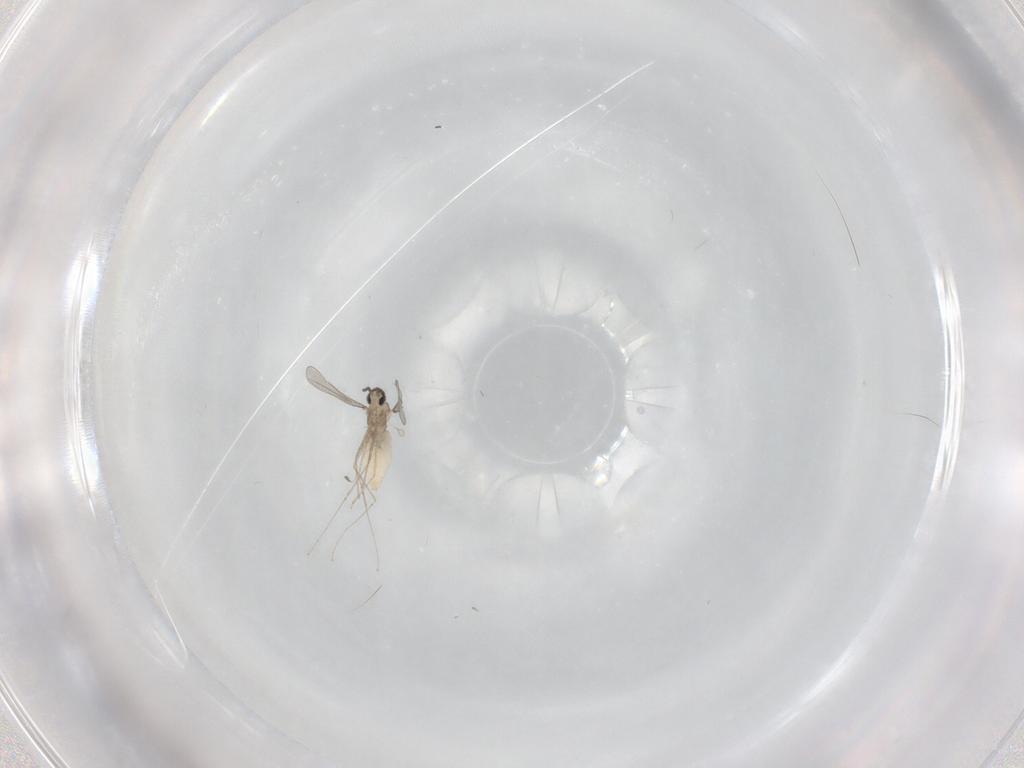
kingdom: Animalia
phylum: Arthropoda
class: Insecta
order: Diptera
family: Cecidomyiidae
